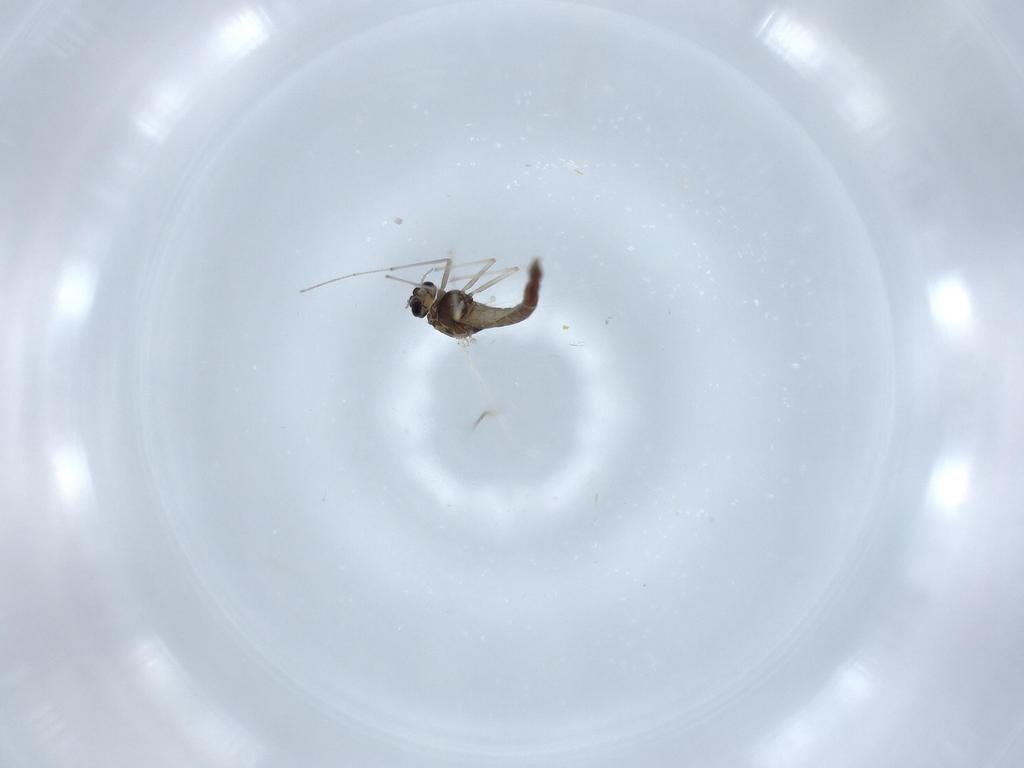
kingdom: Animalia
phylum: Arthropoda
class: Insecta
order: Diptera
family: Chironomidae
